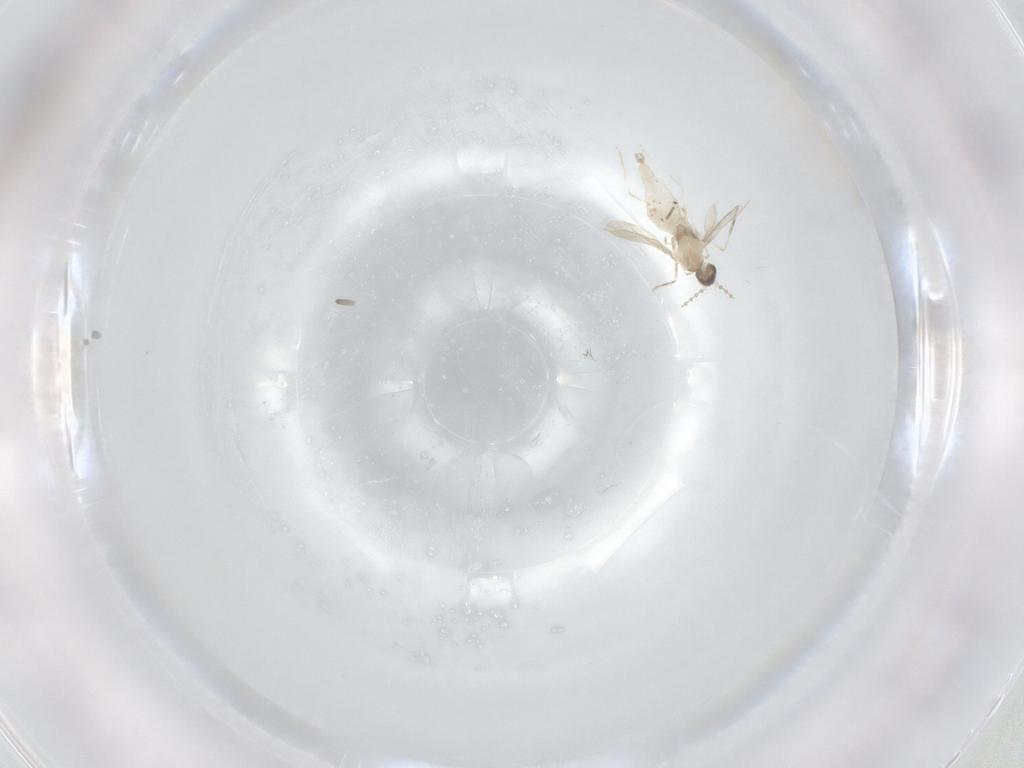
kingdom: Animalia
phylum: Arthropoda
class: Insecta
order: Diptera
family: Cecidomyiidae
